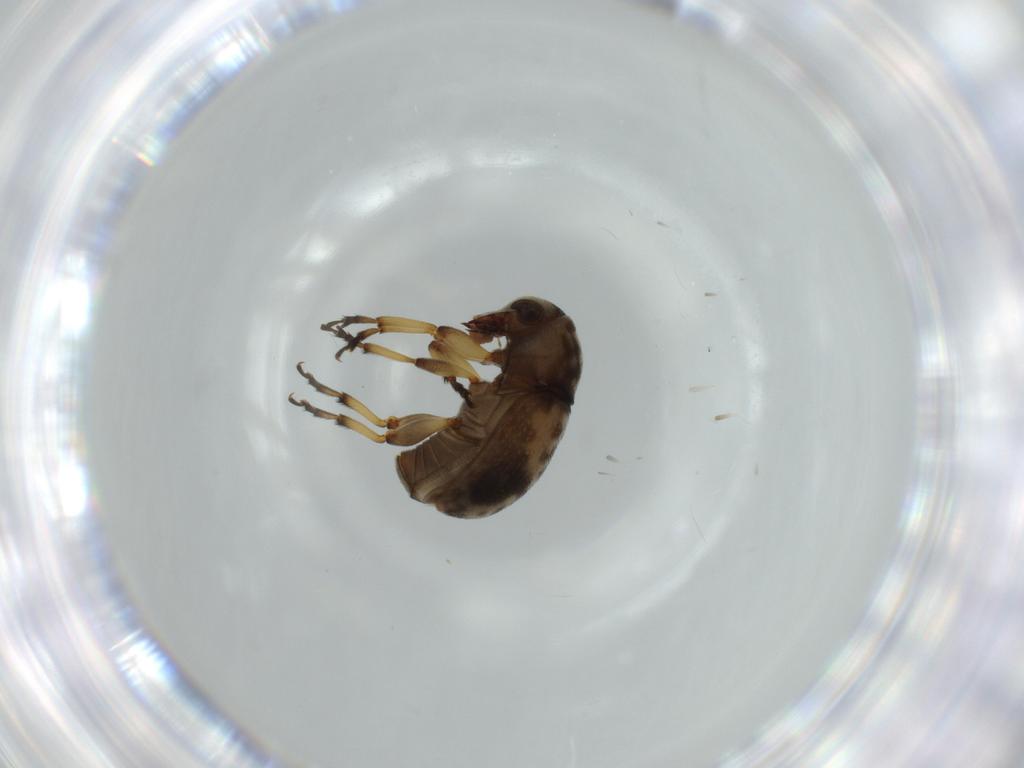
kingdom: Animalia
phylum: Arthropoda
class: Insecta
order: Coleoptera
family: Anthribidae
